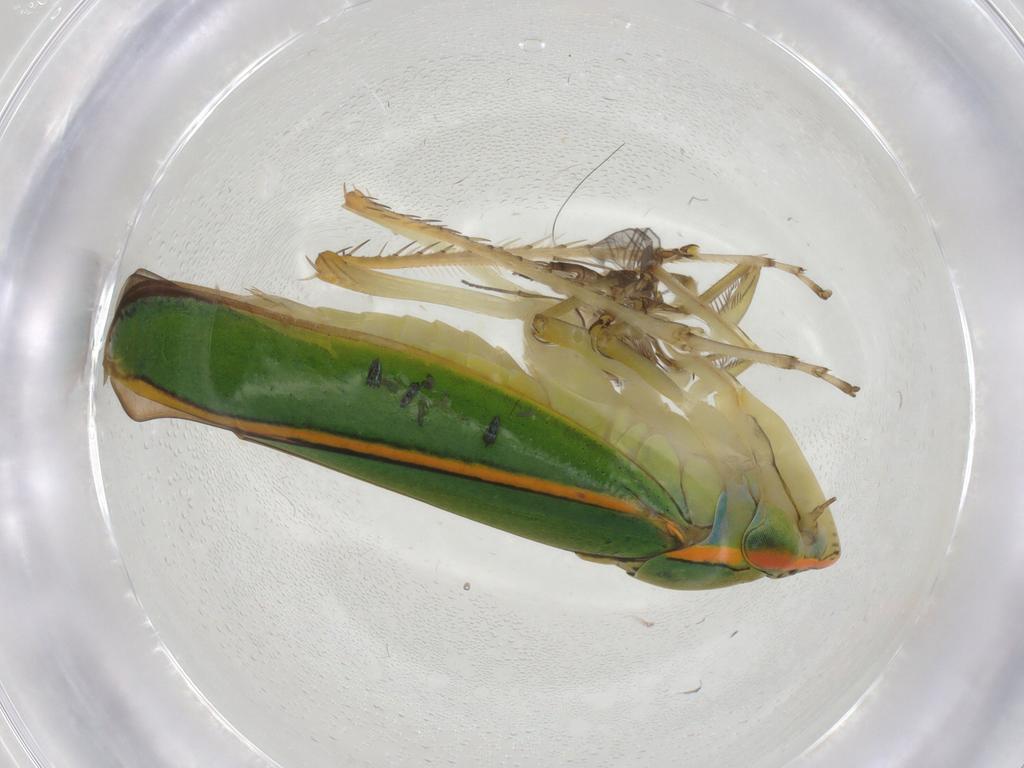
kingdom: Animalia
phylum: Arthropoda
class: Insecta
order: Hemiptera
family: Cicadellidae
